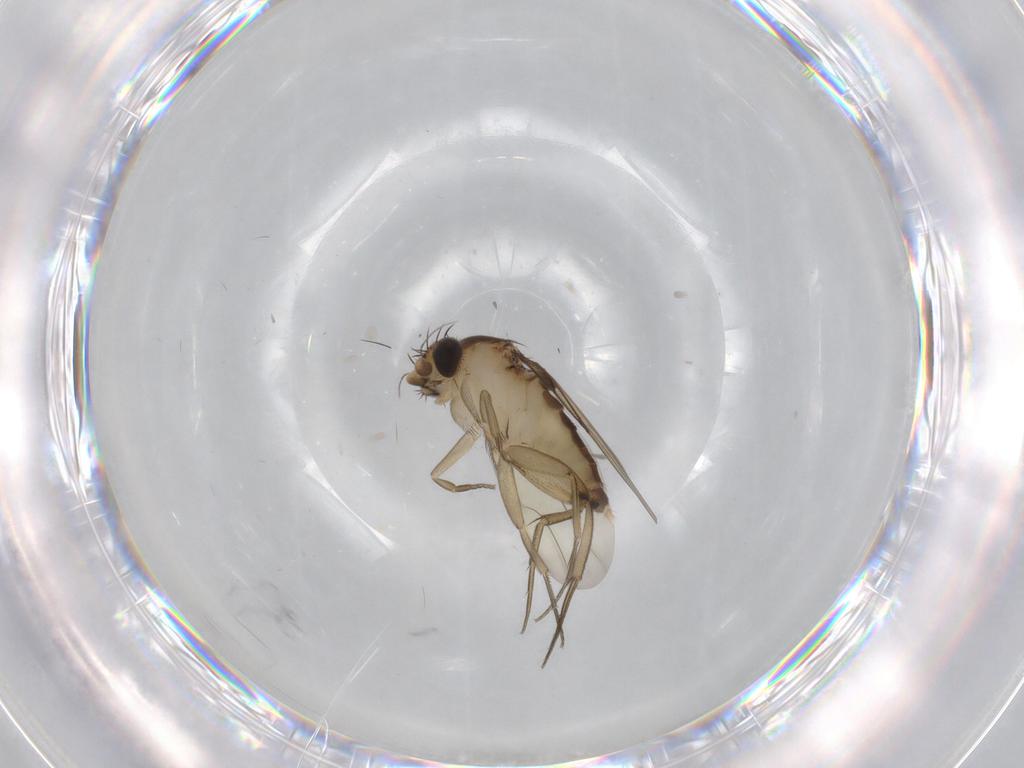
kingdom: Animalia
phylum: Arthropoda
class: Insecta
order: Diptera
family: Phoridae
